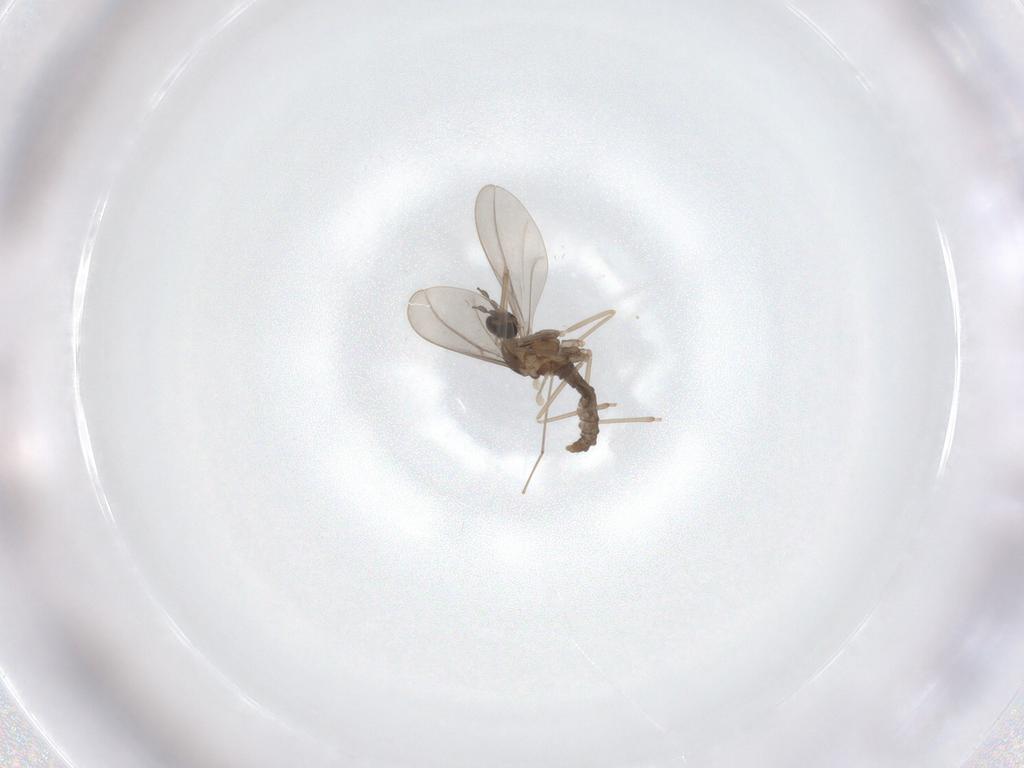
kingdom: Animalia
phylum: Arthropoda
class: Insecta
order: Diptera
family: Cecidomyiidae
